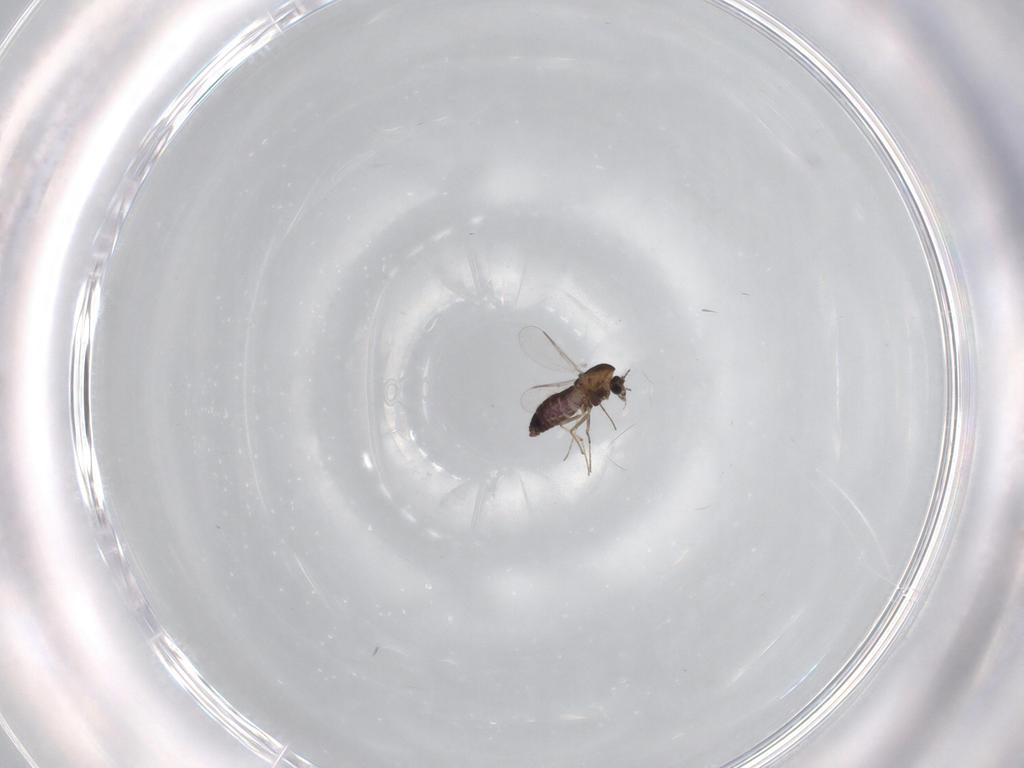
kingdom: Animalia
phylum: Arthropoda
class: Insecta
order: Diptera
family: Chironomidae
